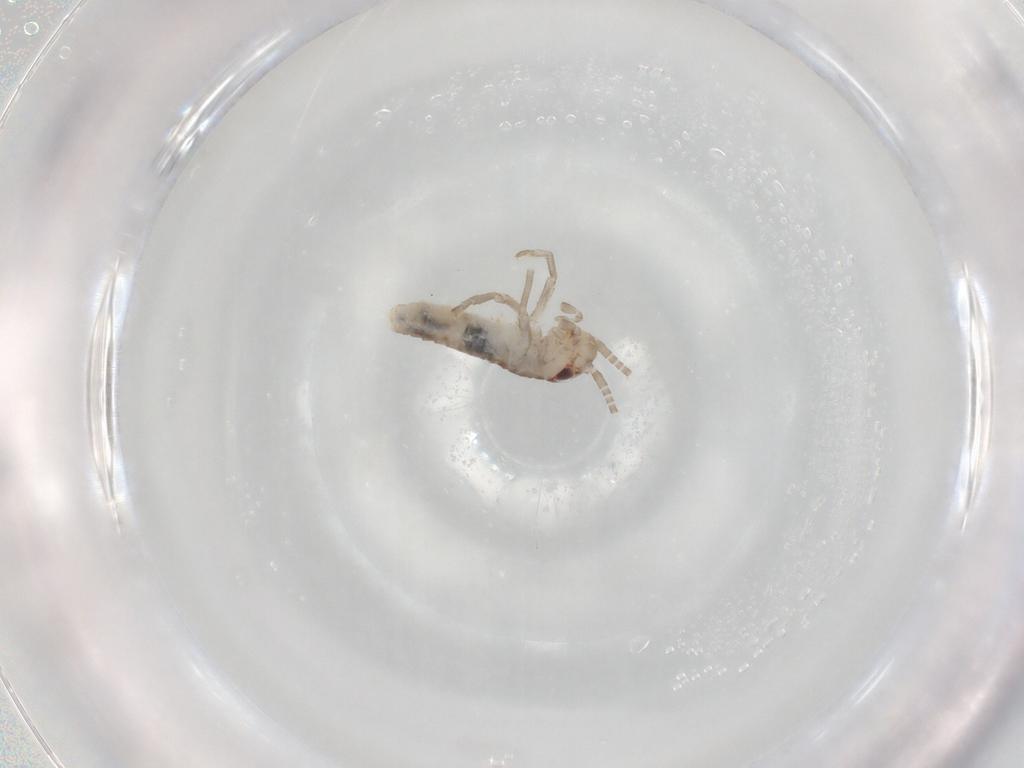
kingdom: Animalia
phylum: Arthropoda
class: Insecta
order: Orthoptera
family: Gryllidae
